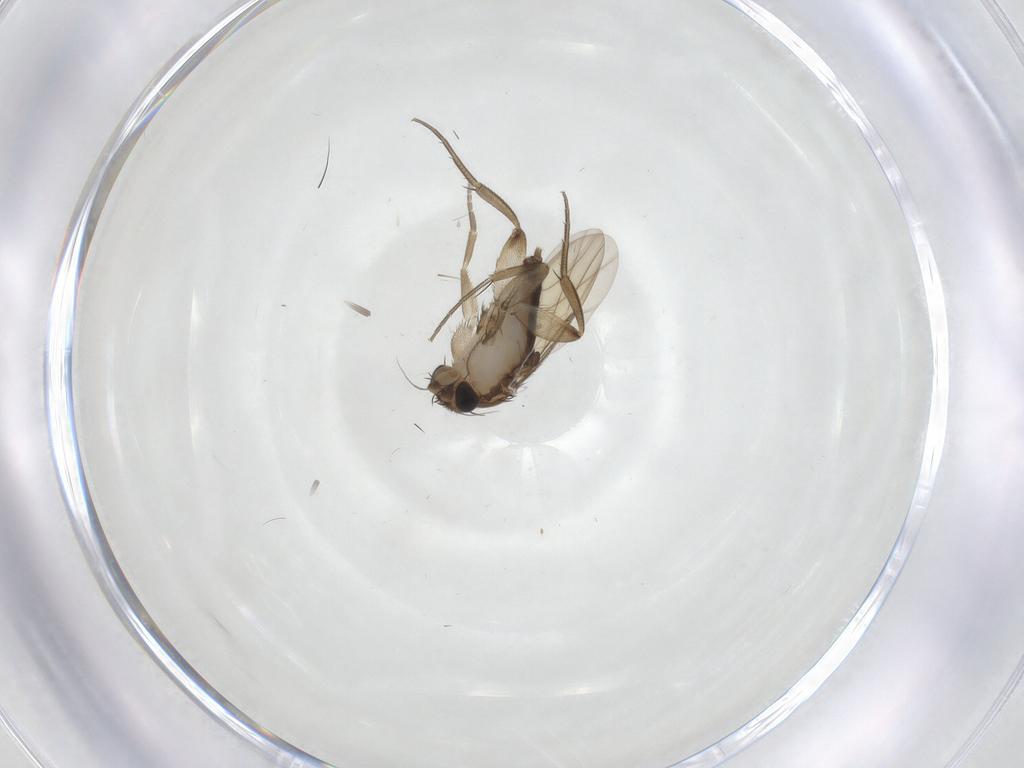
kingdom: Animalia
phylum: Arthropoda
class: Insecta
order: Diptera
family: Phoridae
